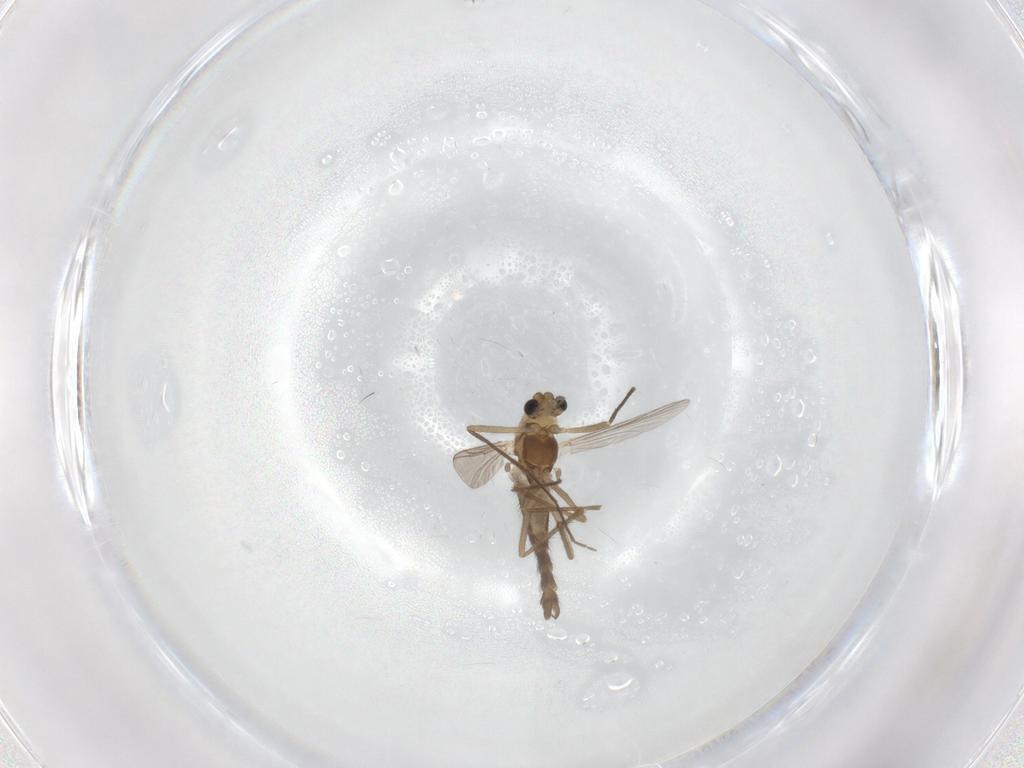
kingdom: Animalia
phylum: Arthropoda
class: Insecta
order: Diptera
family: Chironomidae
